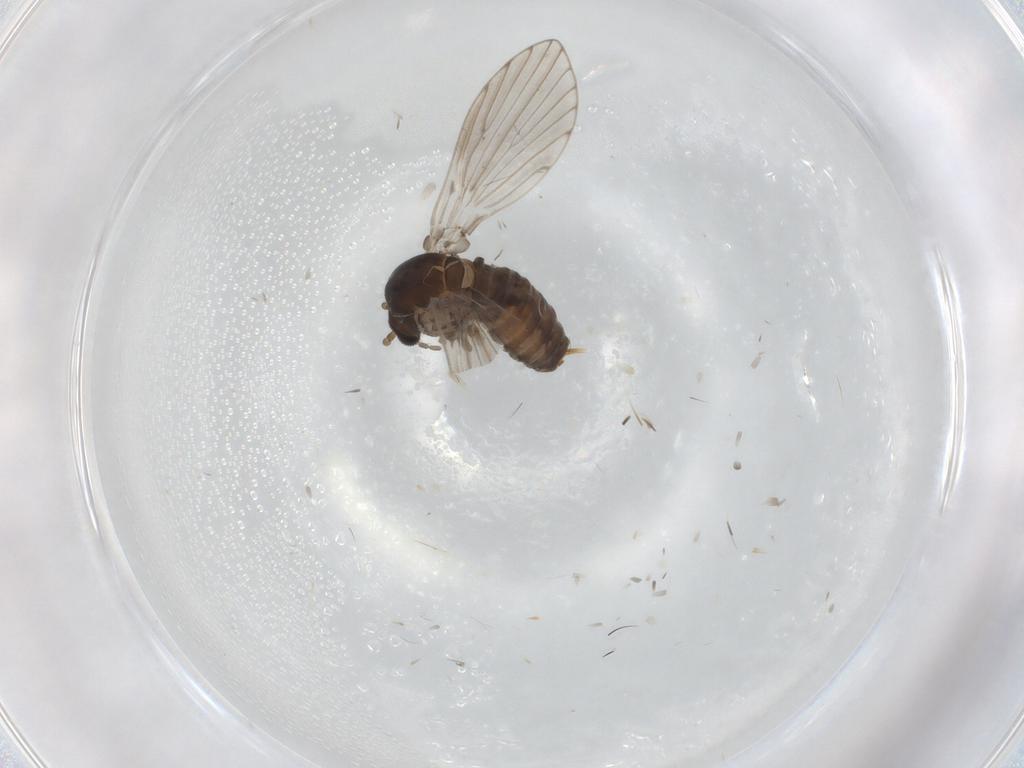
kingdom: Animalia
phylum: Arthropoda
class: Insecta
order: Diptera
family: Psychodidae
